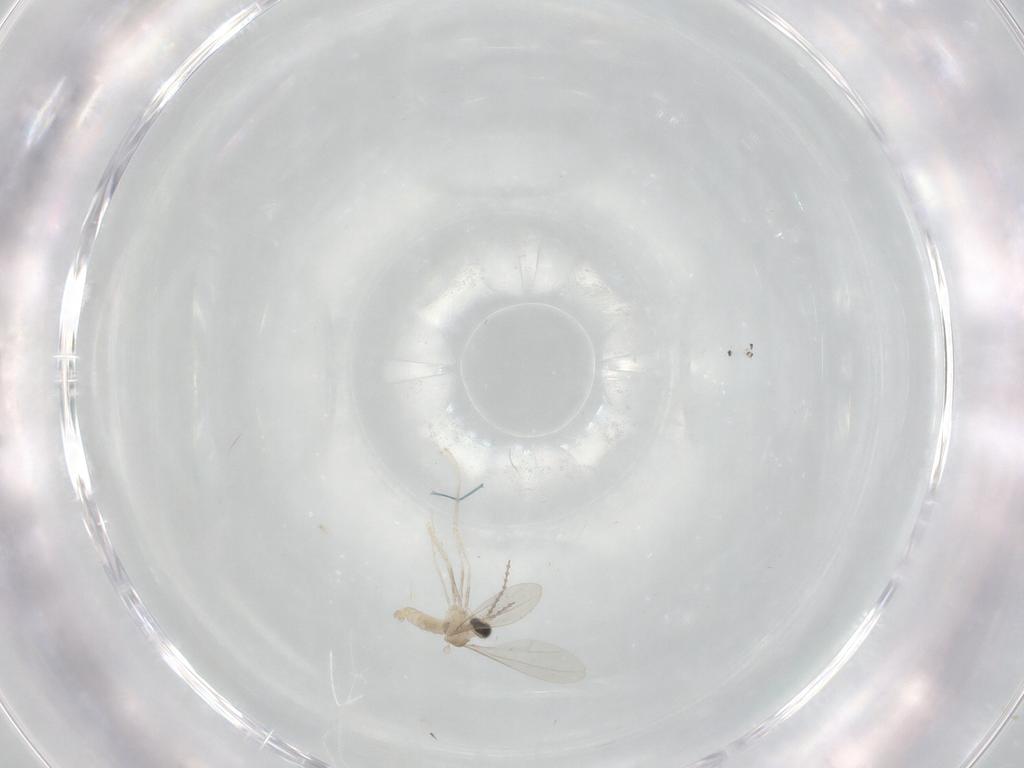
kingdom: Animalia
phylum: Arthropoda
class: Insecta
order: Diptera
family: Cecidomyiidae
